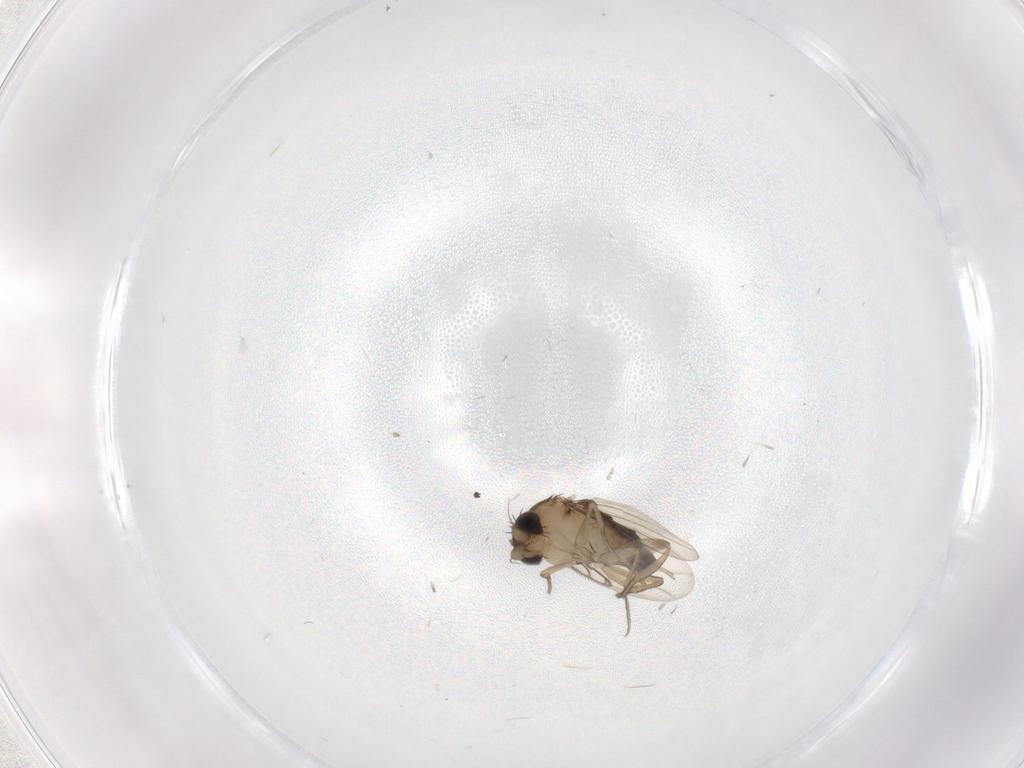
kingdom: Animalia
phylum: Arthropoda
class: Insecta
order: Diptera
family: Phoridae
